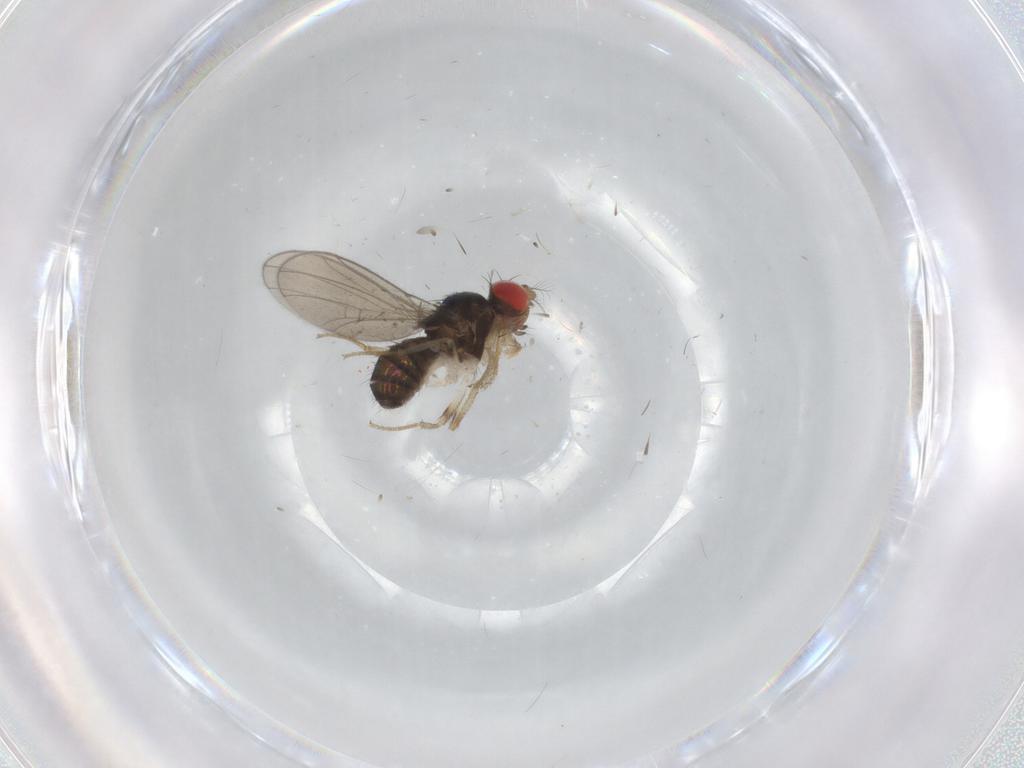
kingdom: Animalia
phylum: Arthropoda
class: Insecta
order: Diptera
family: Drosophilidae
